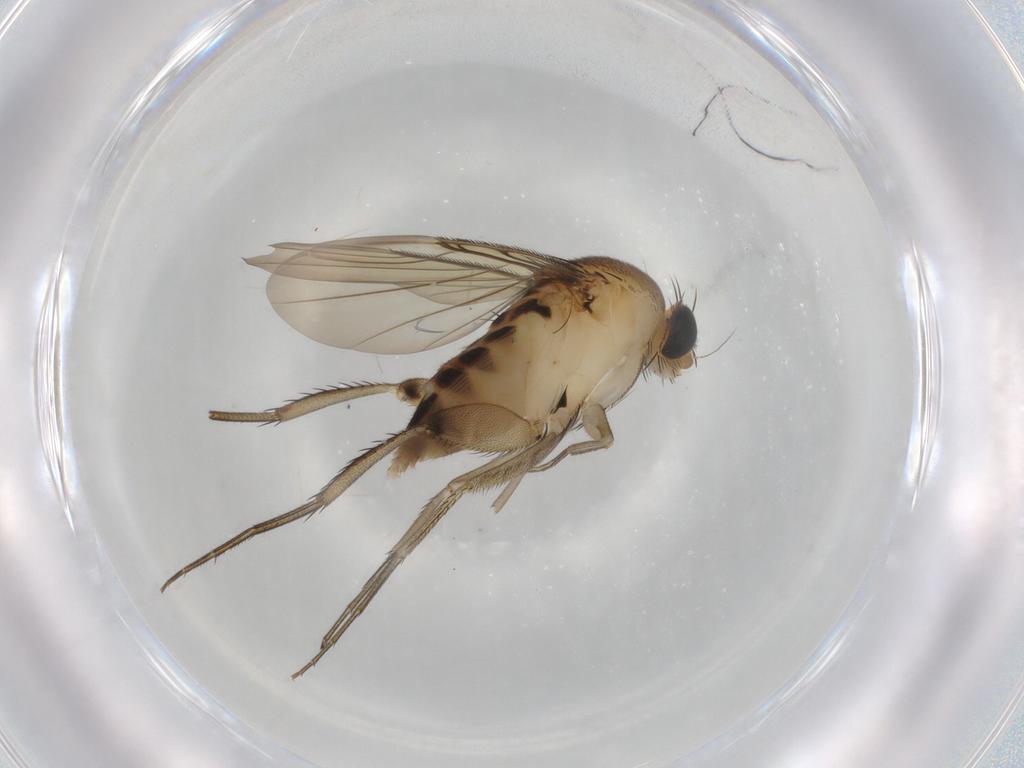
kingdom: Animalia
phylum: Arthropoda
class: Insecta
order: Diptera
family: Phoridae
